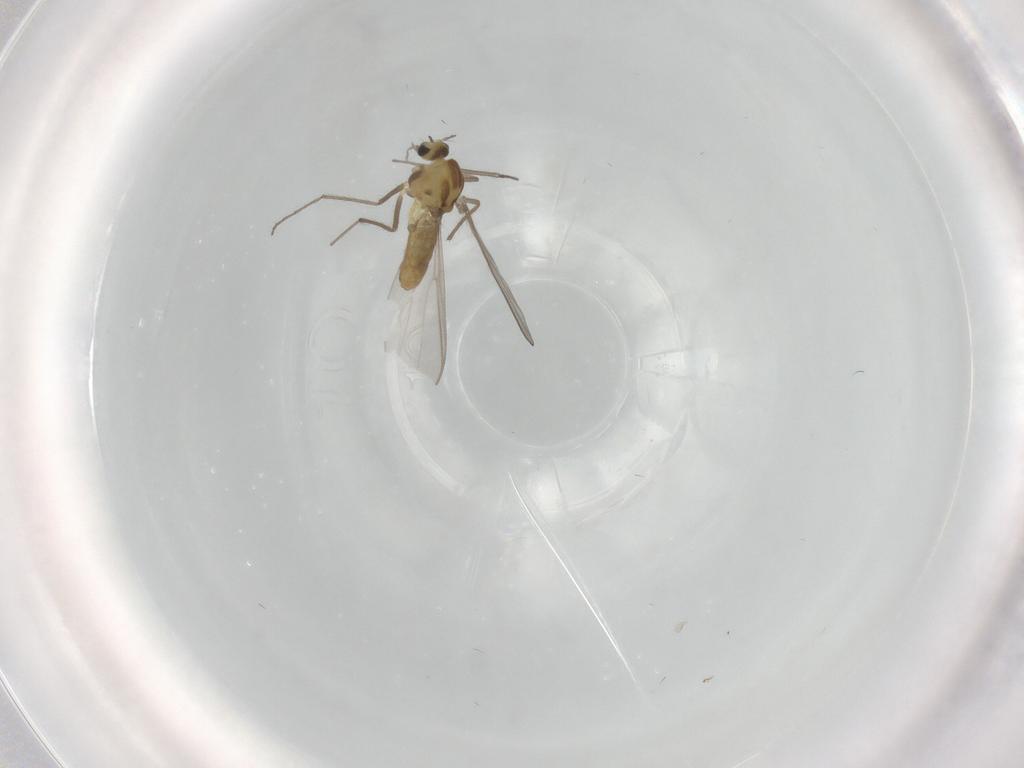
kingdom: Animalia
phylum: Arthropoda
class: Insecta
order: Diptera
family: Chironomidae
